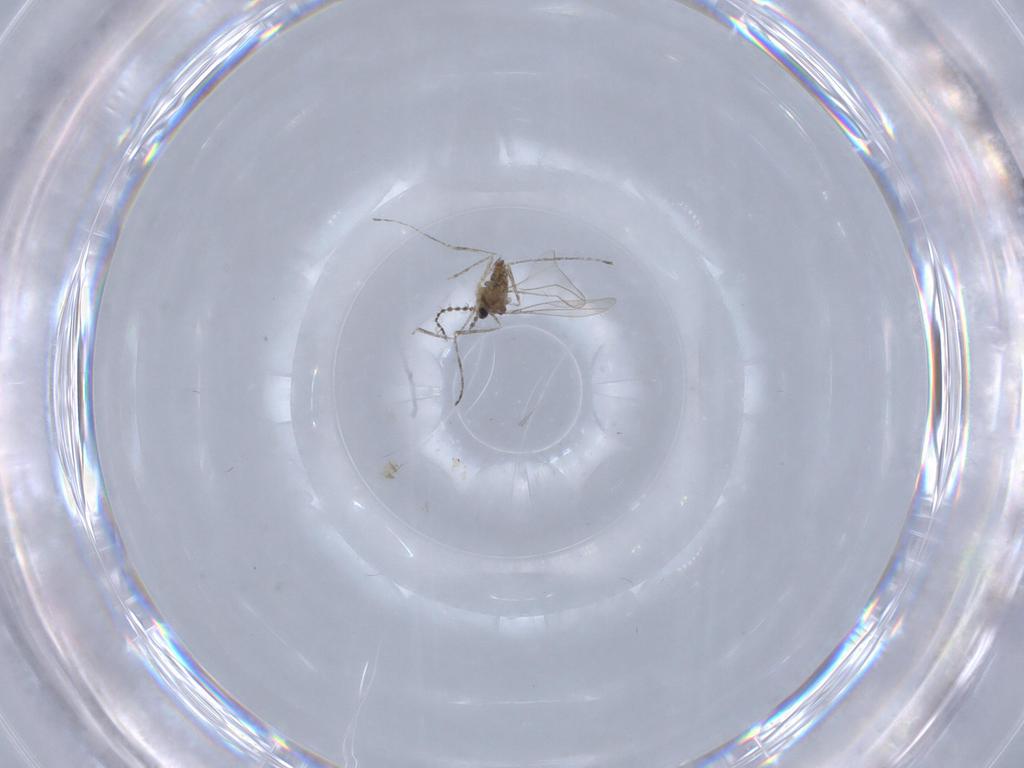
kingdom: Animalia
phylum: Arthropoda
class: Insecta
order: Diptera
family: Cecidomyiidae
